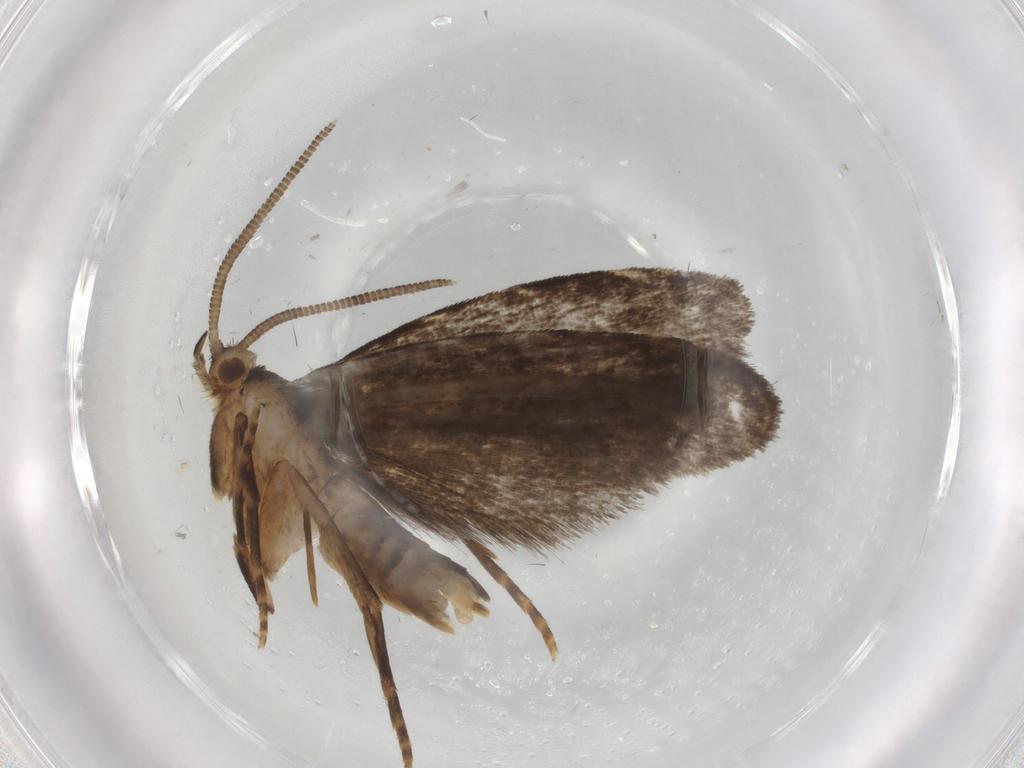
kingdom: Animalia
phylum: Arthropoda
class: Insecta
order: Lepidoptera
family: Dryadaulidae
